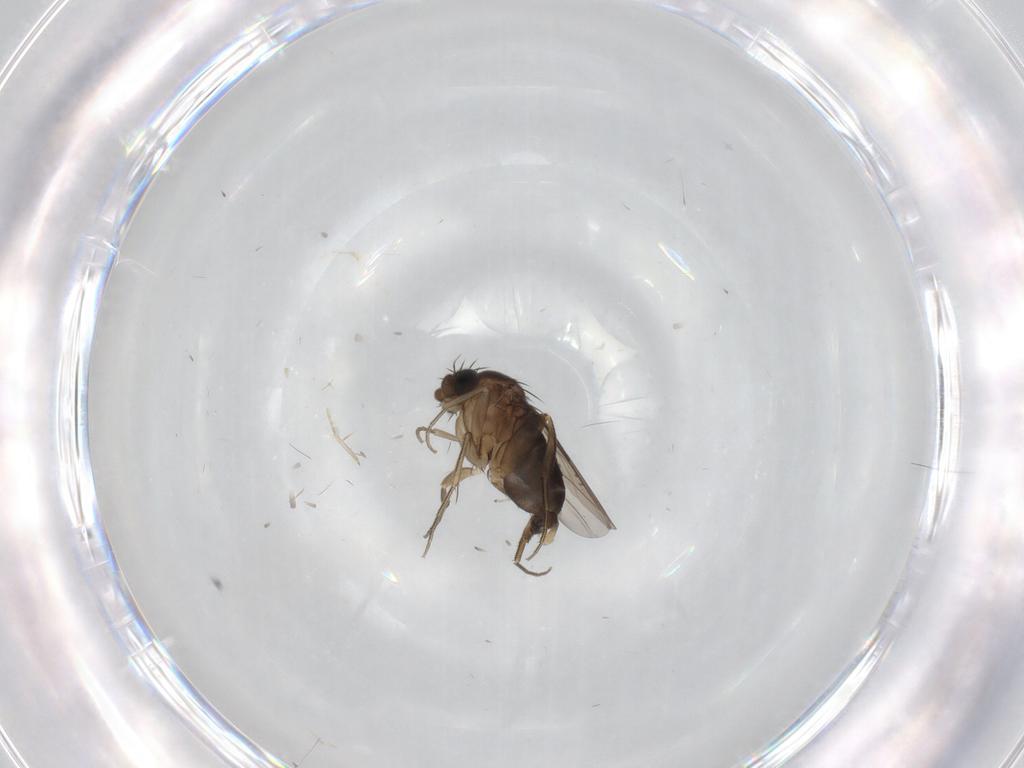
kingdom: Animalia
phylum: Arthropoda
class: Insecta
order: Diptera
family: Phoridae
